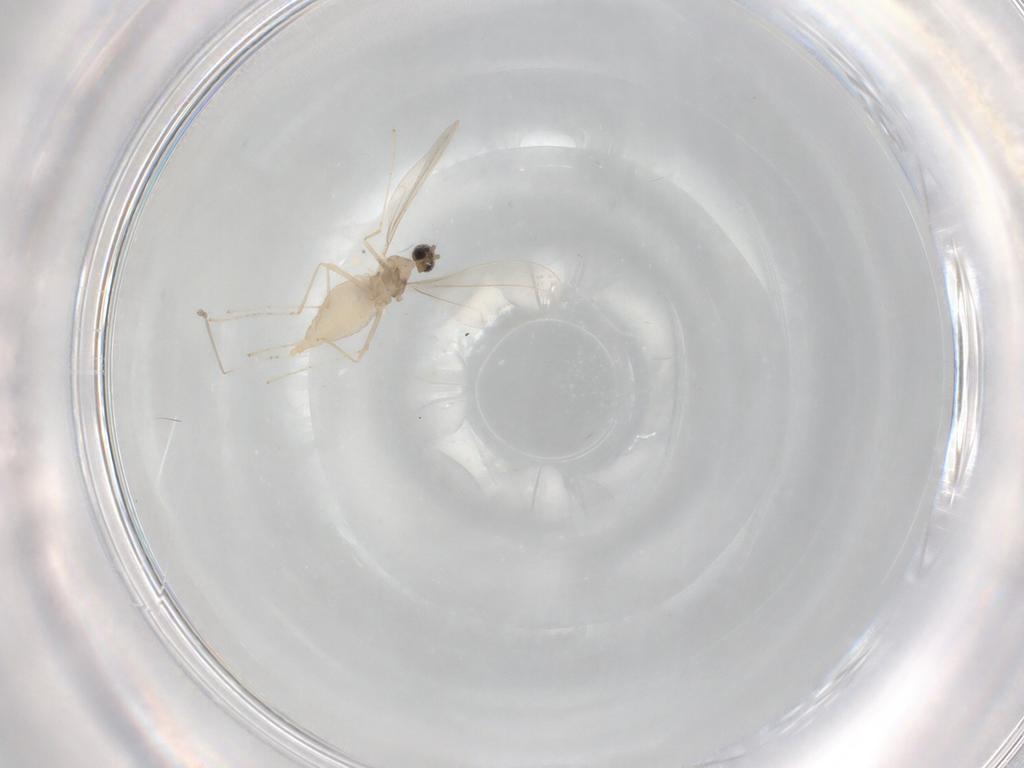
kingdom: Animalia
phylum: Arthropoda
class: Insecta
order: Diptera
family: Cecidomyiidae
